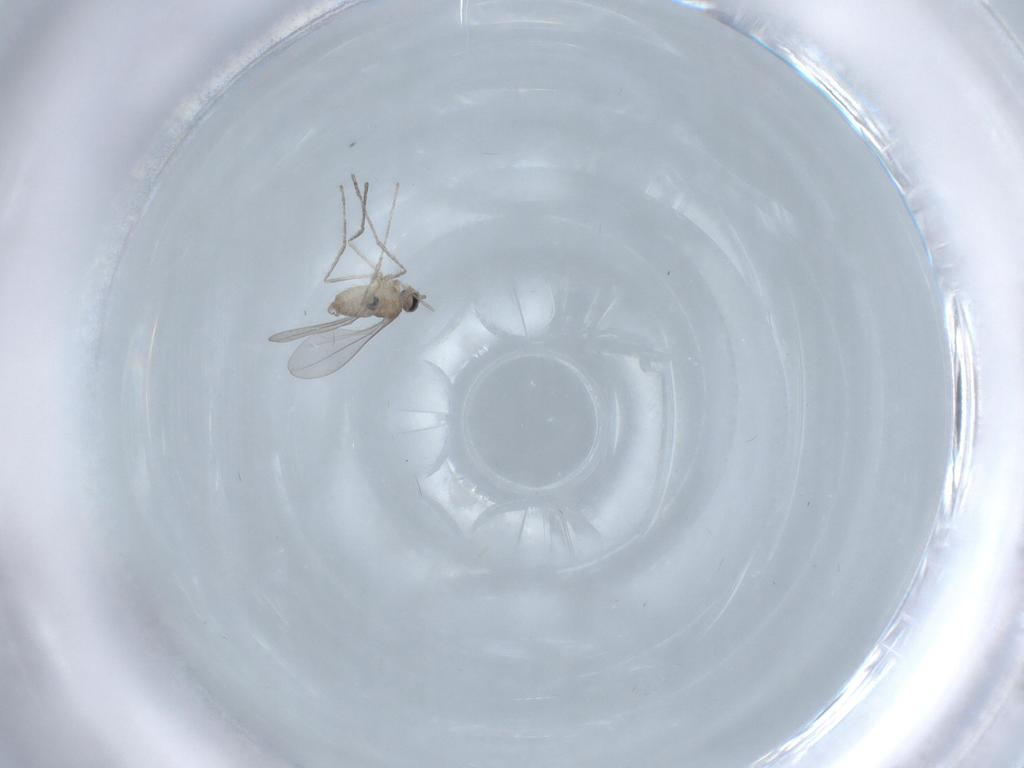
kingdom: Animalia
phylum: Arthropoda
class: Insecta
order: Diptera
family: Cecidomyiidae
